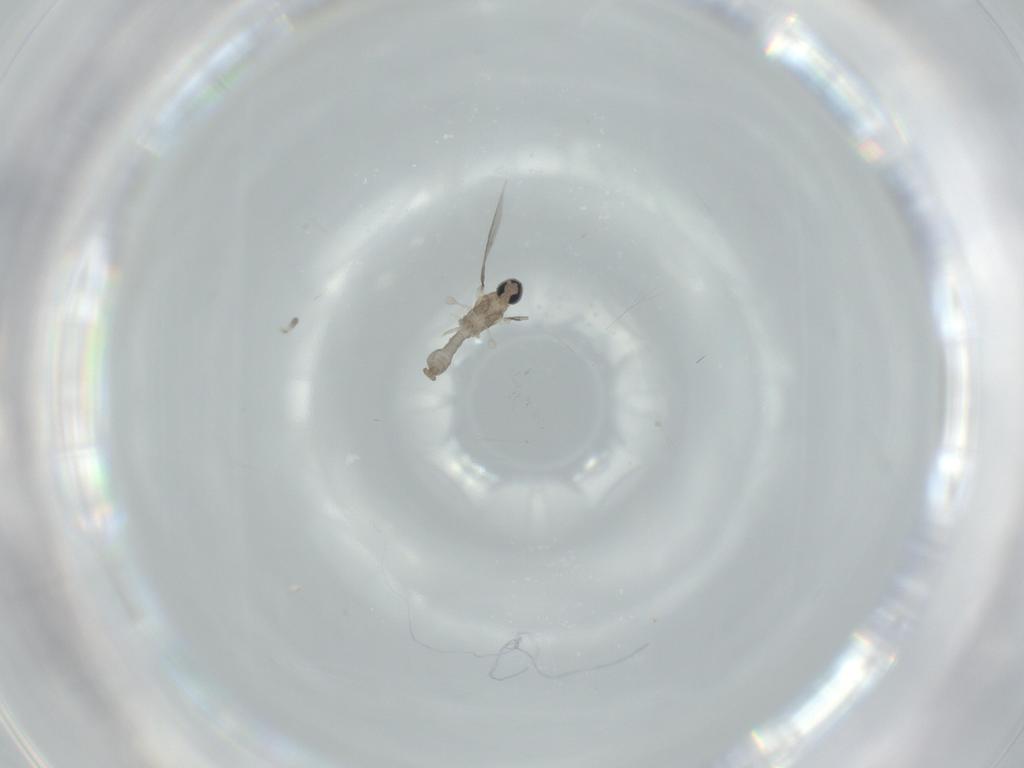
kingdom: Animalia
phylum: Arthropoda
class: Insecta
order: Diptera
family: Cecidomyiidae
